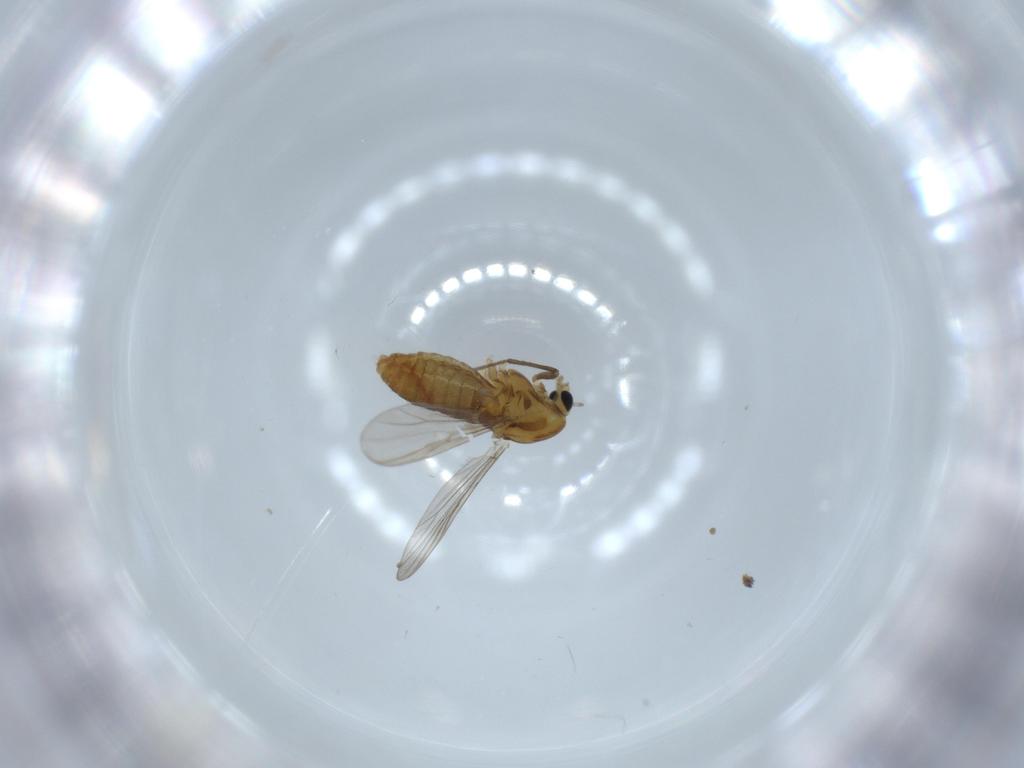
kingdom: Animalia
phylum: Arthropoda
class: Insecta
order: Diptera
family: Chironomidae
